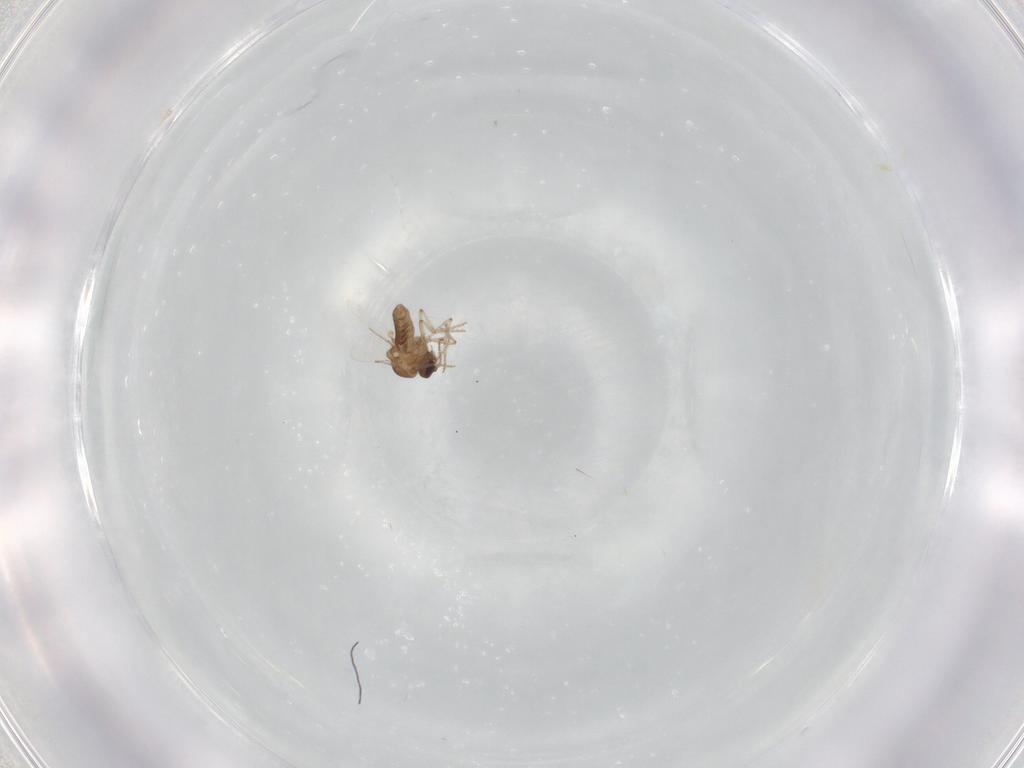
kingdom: Animalia
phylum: Arthropoda
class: Insecta
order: Diptera
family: Ceratopogonidae
